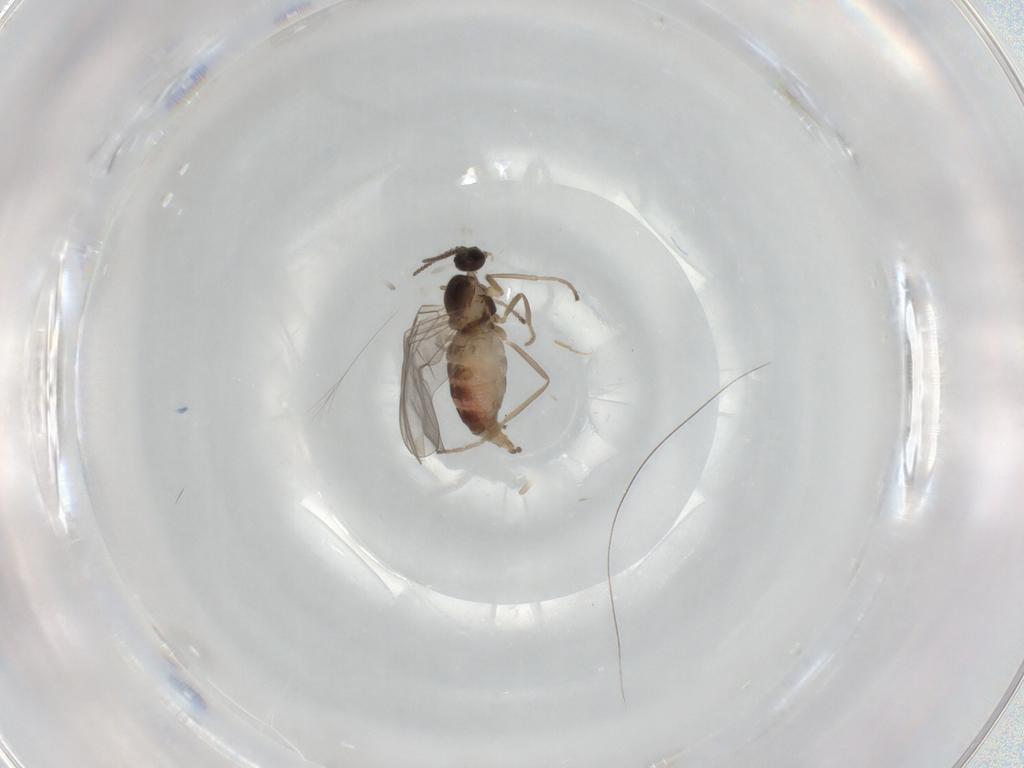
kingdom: Animalia
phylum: Arthropoda
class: Insecta
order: Diptera
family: Cecidomyiidae
